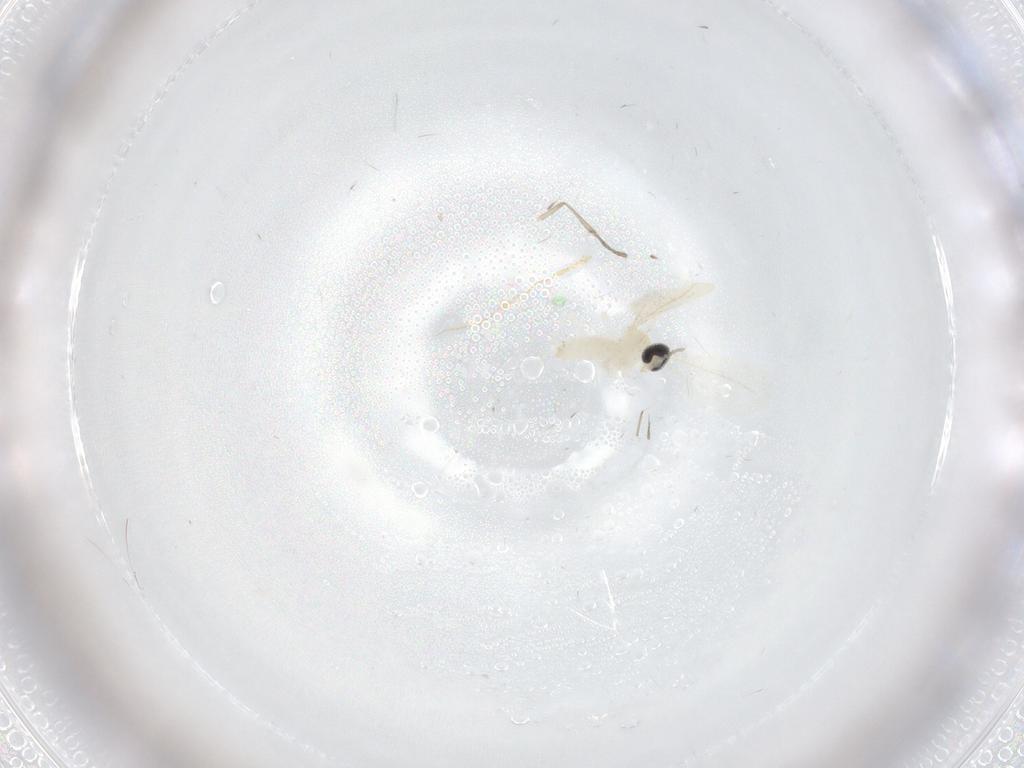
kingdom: Animalia
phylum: Arthropoda
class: Insecta
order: Diptera
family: Cecidomyiidae
